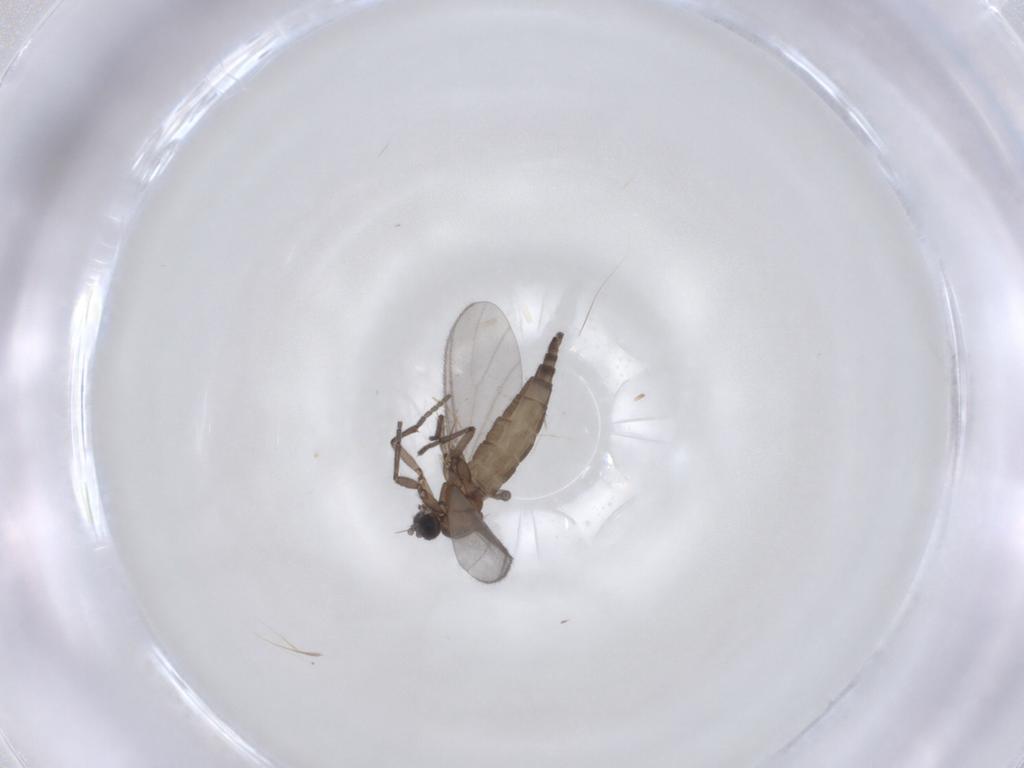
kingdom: Animalia
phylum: Arthropoda
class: Insecta
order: Diptera
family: Sciaridae
